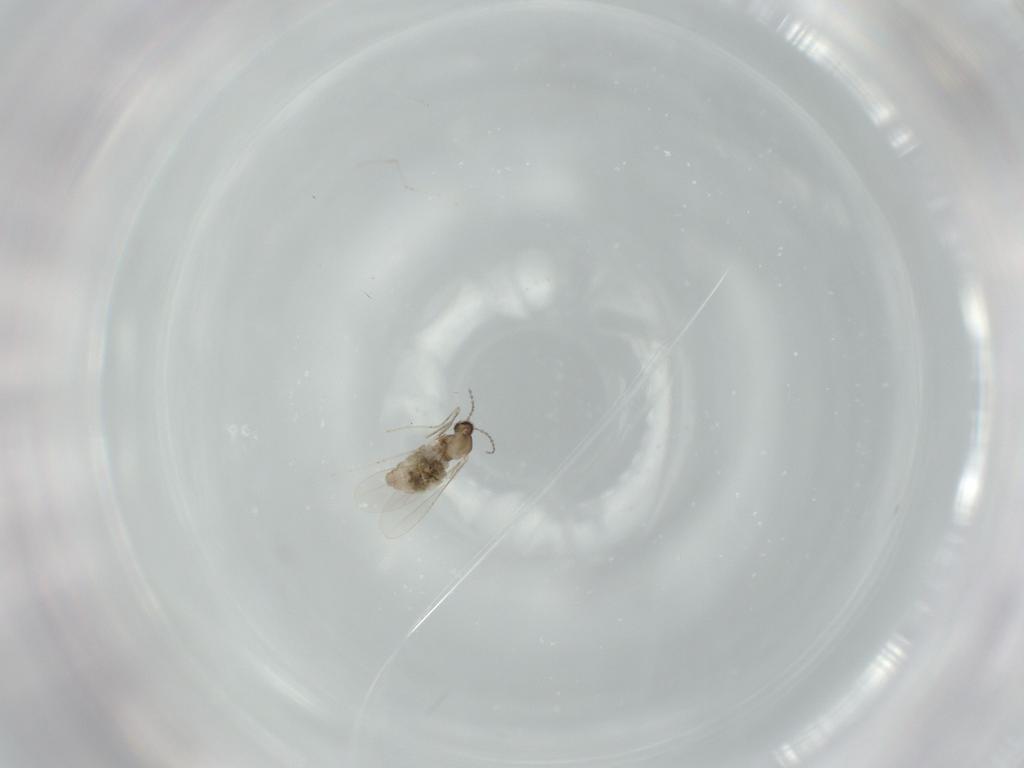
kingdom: Animalia
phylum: Arthropoda
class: Insecta
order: Diptera
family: Cecidomyiidae
